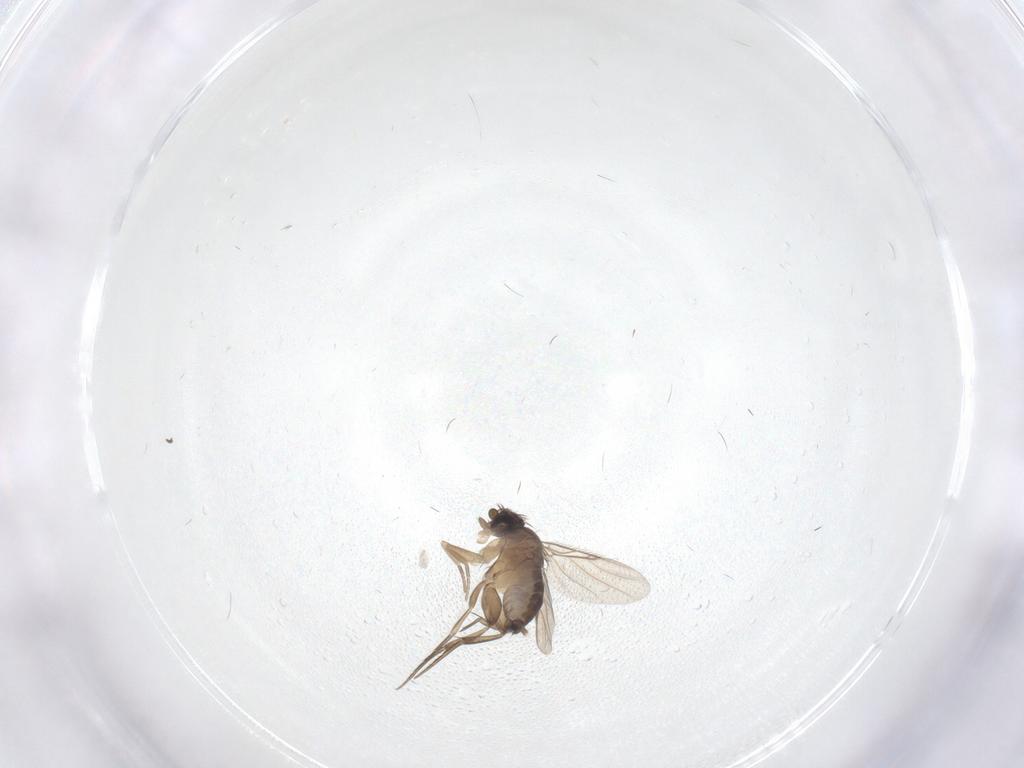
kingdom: Animalia
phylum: Arthropoda
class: Insecta
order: Diptera
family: Phoridae
